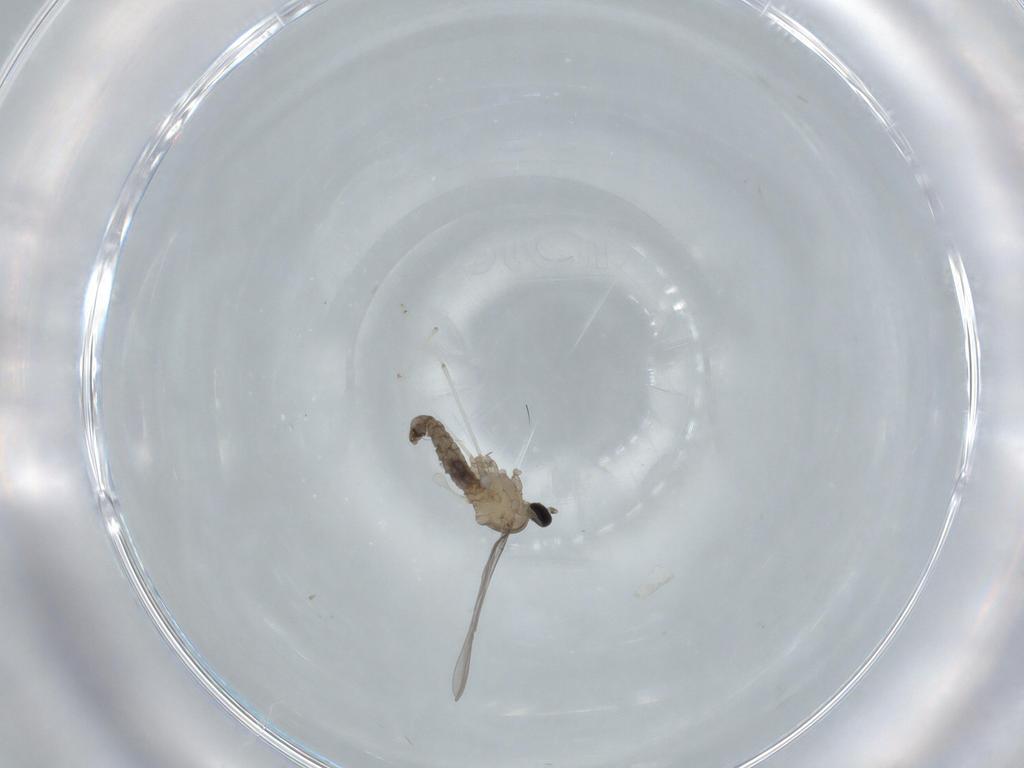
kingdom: Animalia
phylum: Arthropoda
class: Insecta
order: Diptera
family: Cecidomyiidae
